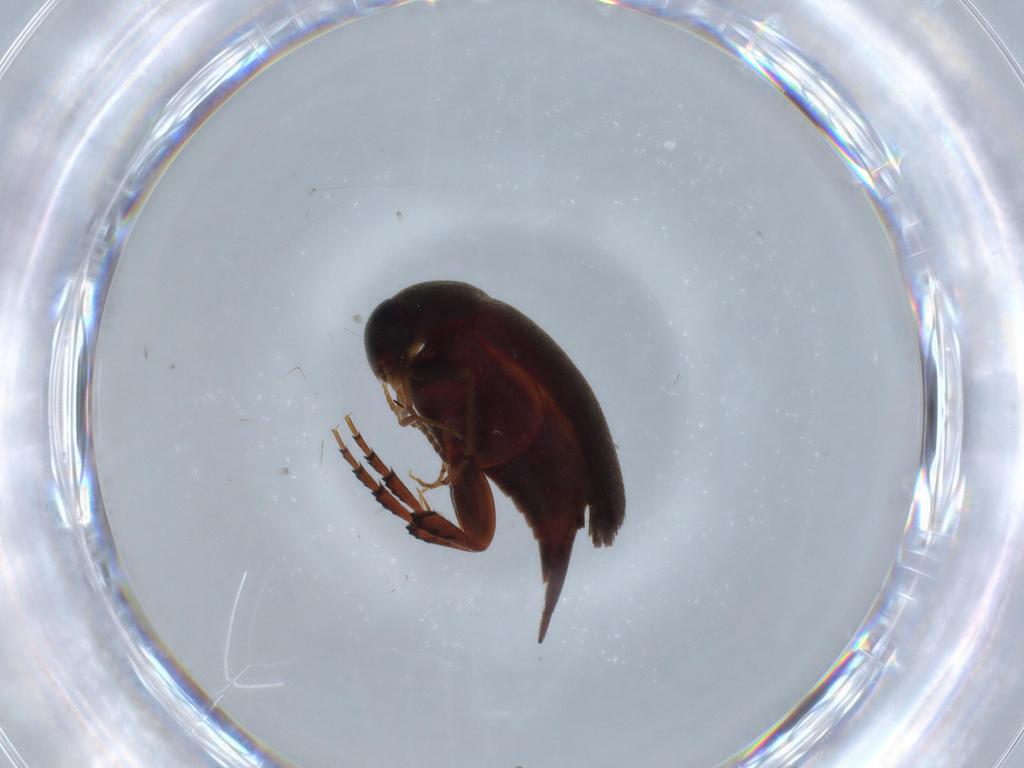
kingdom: Animalia
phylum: Arthropoda
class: Insecta
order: Coleoptera
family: Mordellidae
